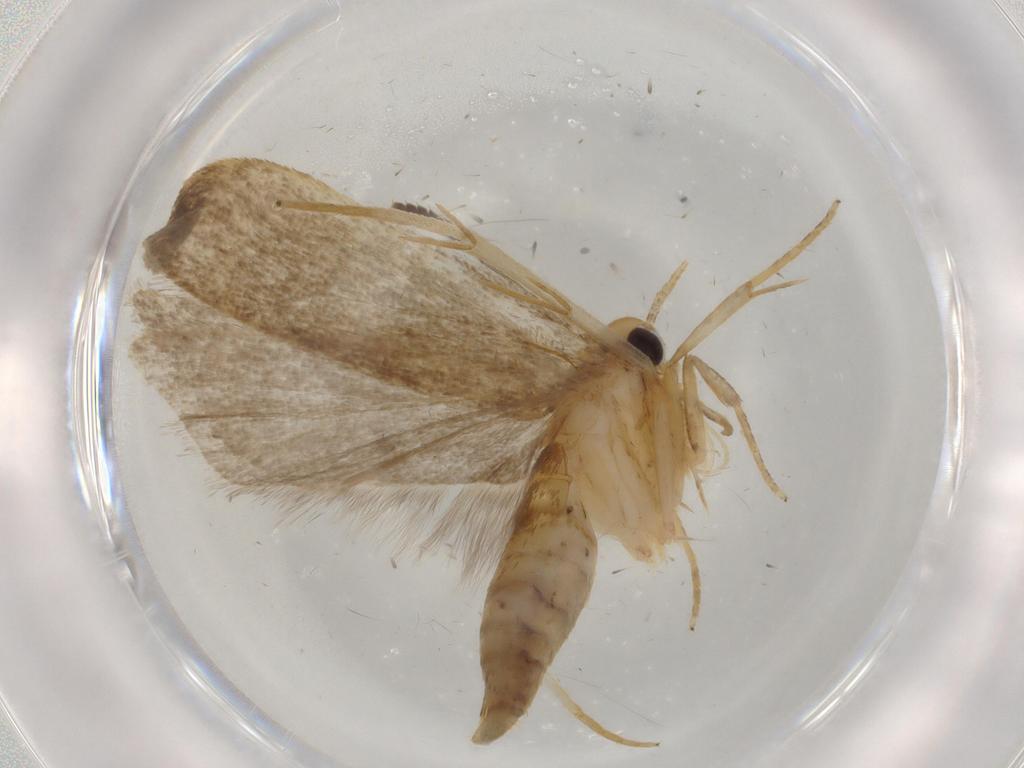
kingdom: Animalia
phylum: Arthropoda
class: Insecta
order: Lepidoptera
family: Autostichidae
